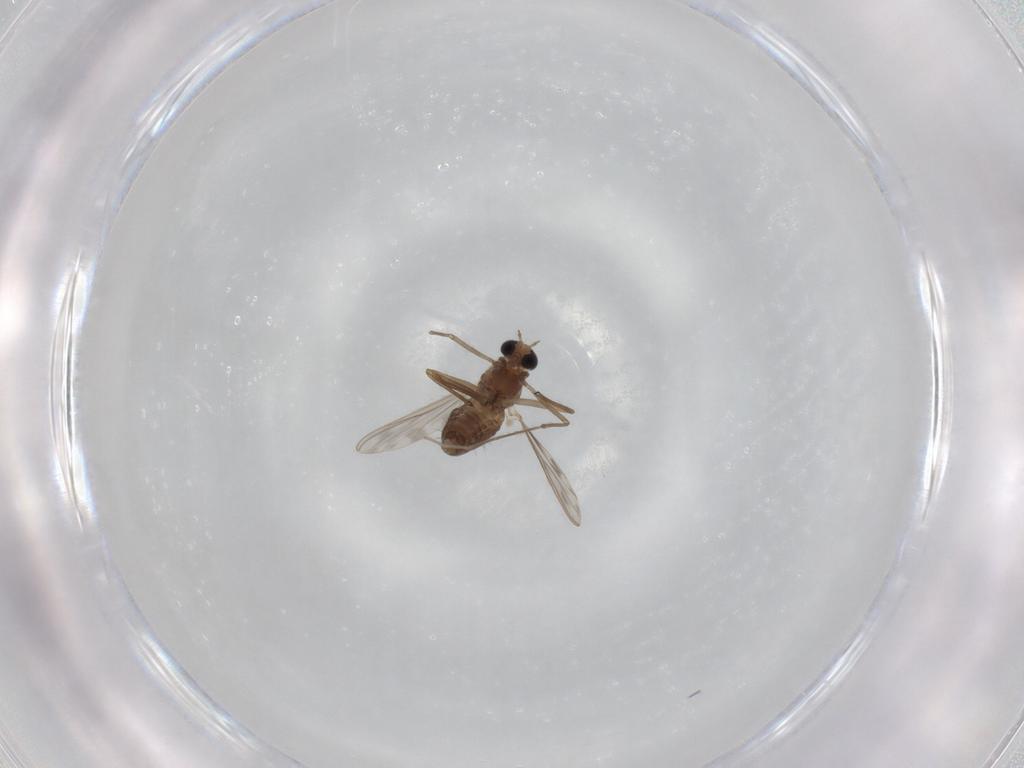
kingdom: Animalia
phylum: Arthropoda
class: Insecta
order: Diptera
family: Chironomidae
